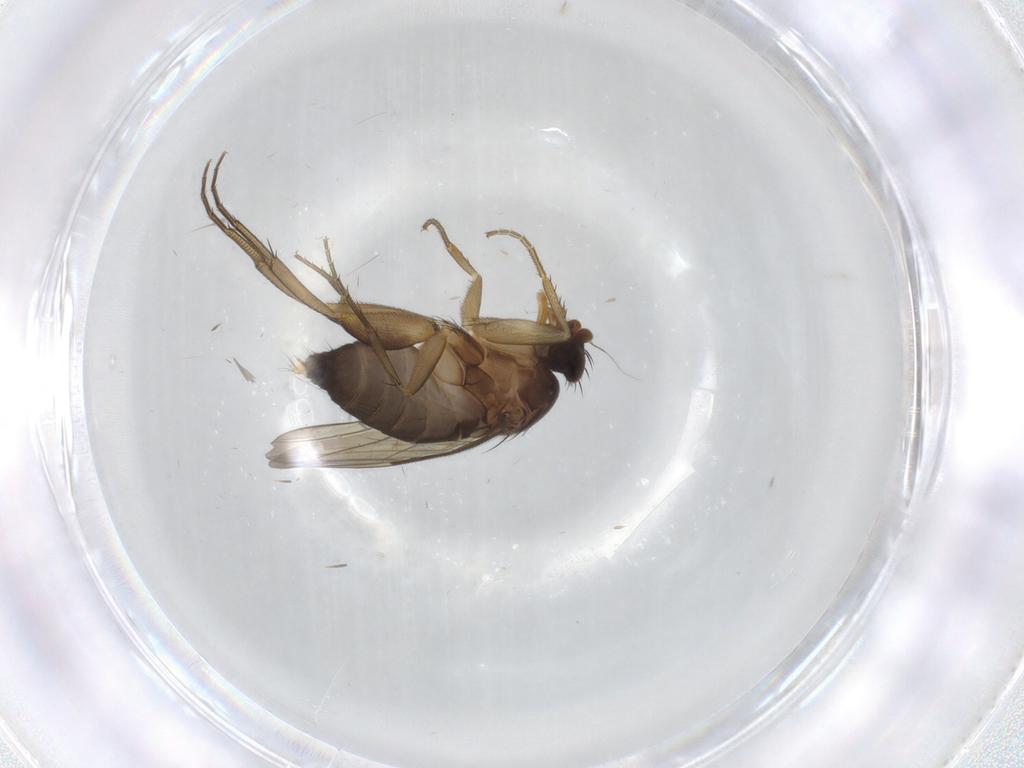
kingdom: Animalia
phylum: Arthropoda
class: Insecta
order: Diptera
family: Phoridae
